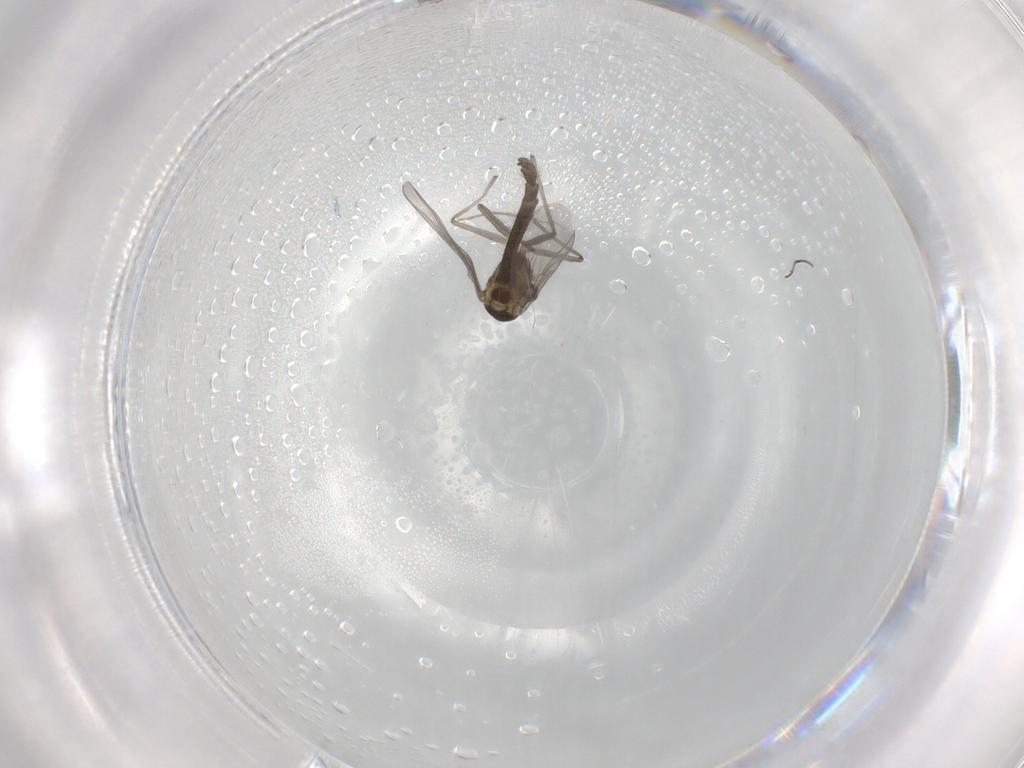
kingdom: Animalia
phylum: Arthropoda
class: Insecta
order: Diptera
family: Chironomidae
